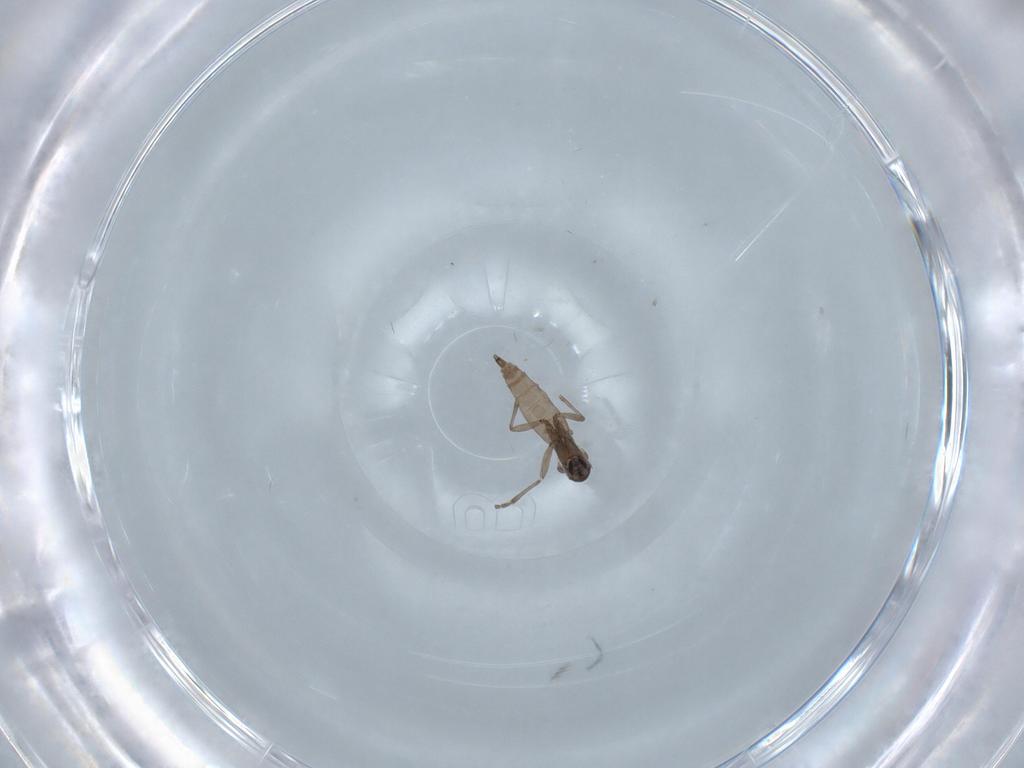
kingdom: Animalia
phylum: Arthropoda
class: Insecta
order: Diptera
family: Sciaridae
